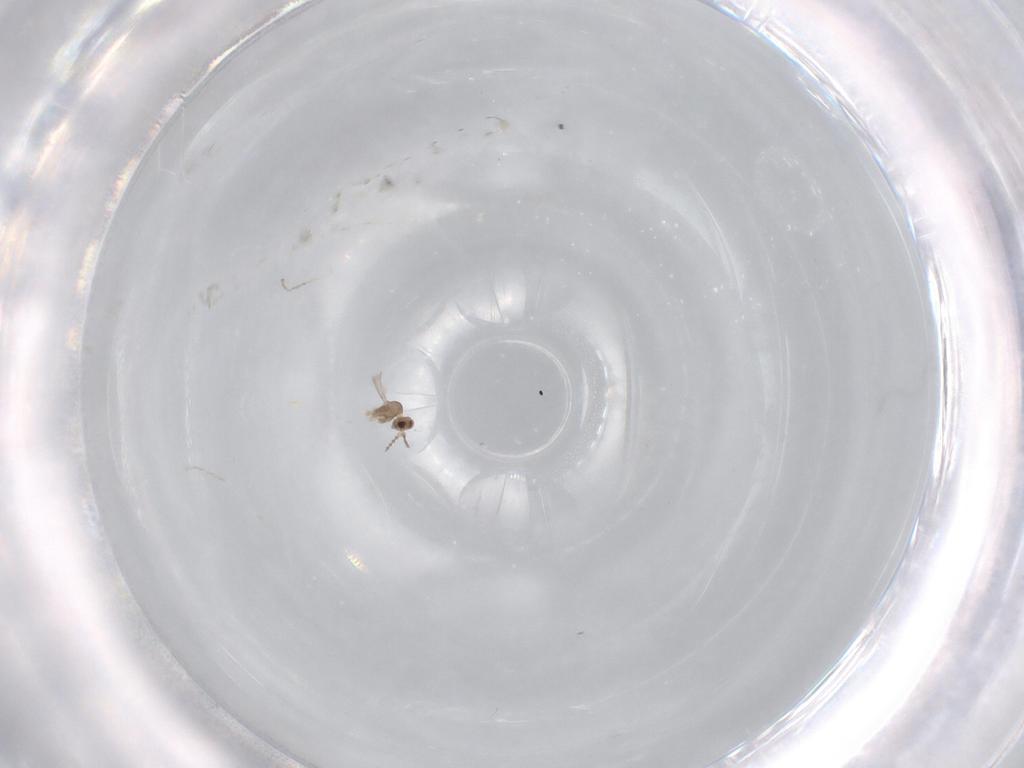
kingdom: Animalia
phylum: Arthropoda
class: Insecta
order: Diptera
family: Cecidomyiidae
